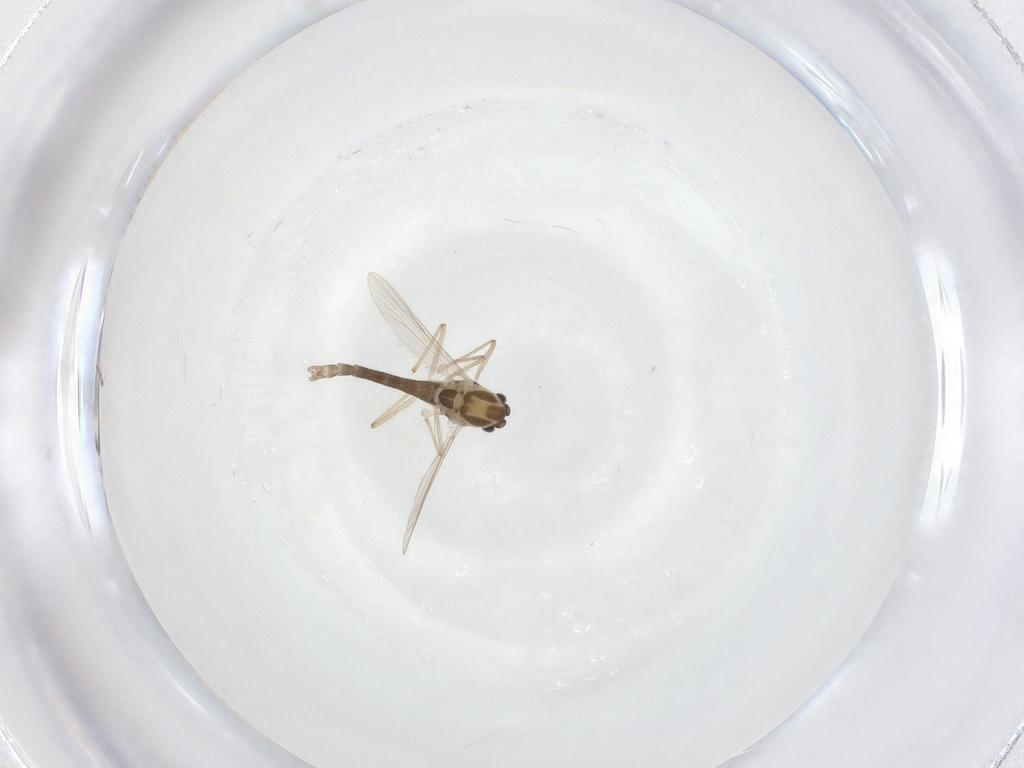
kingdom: Animalia
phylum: Arthropoda
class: Insecta
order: Diptera
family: Chironomidae
